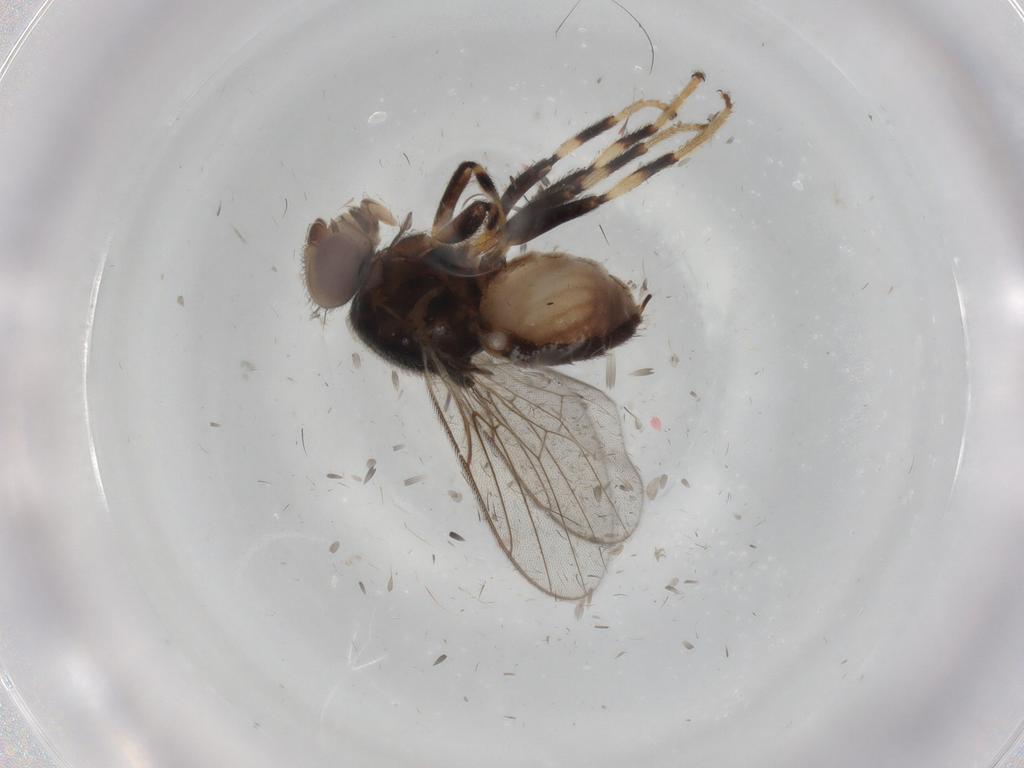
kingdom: Animalia
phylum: Arthropoda
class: Insecta
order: Diptera
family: Chloropidae
